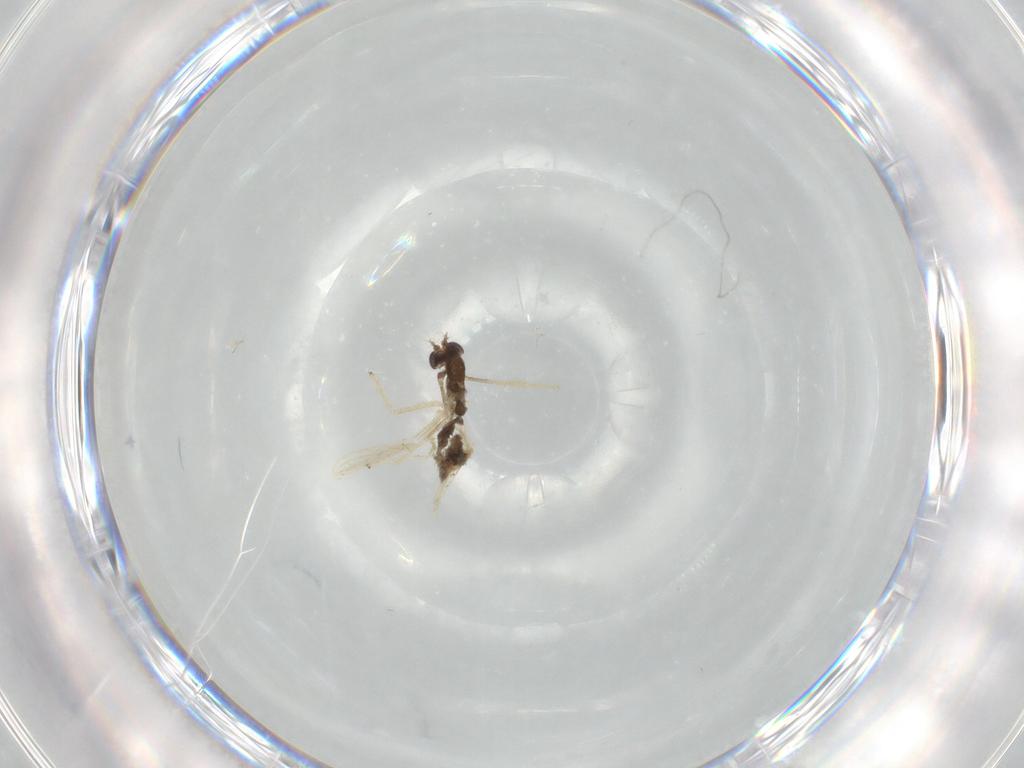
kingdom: Animalia
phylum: Arthropoda
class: Insecta
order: Diptera
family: Chironomidae
